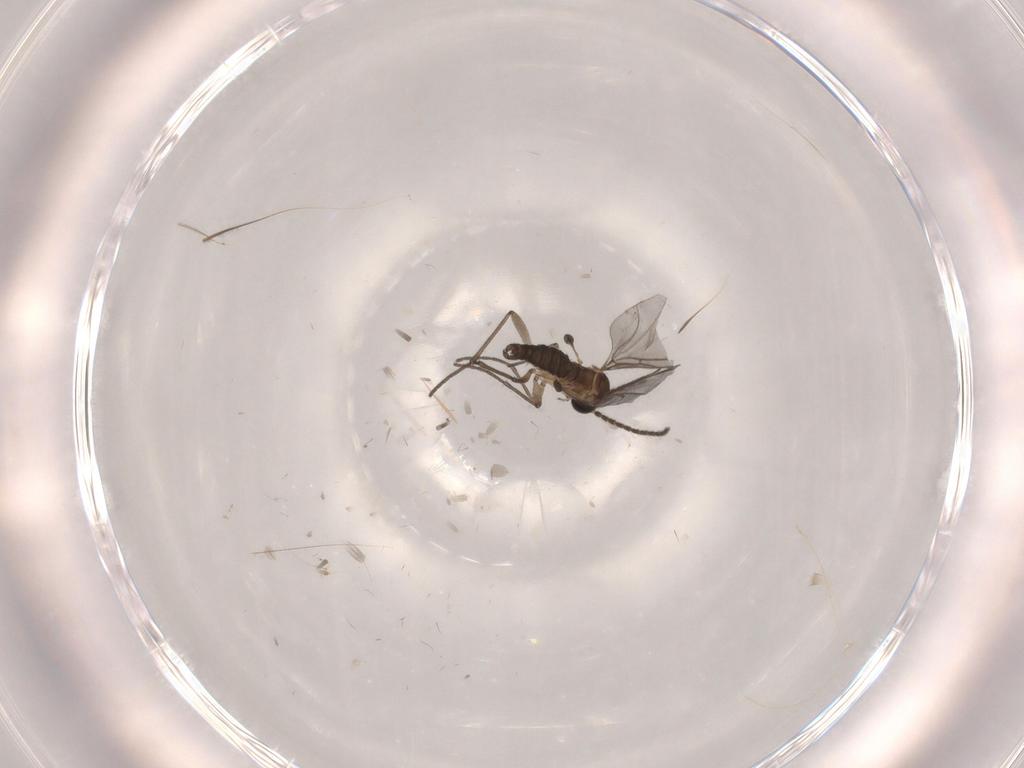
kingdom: Animalia
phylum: Arthropoda
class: Insecta
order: Diptera
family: Sciaridae
